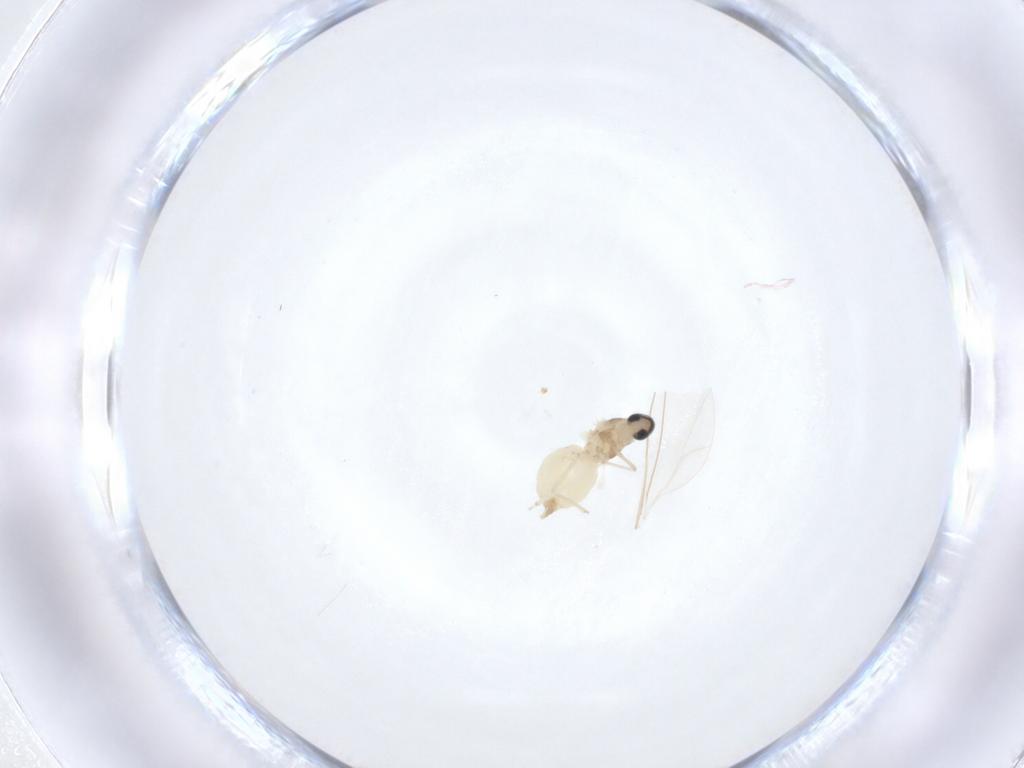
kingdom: Animalia
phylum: Arthropoda
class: Insecta
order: Diptera
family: Cecidomyiidae
